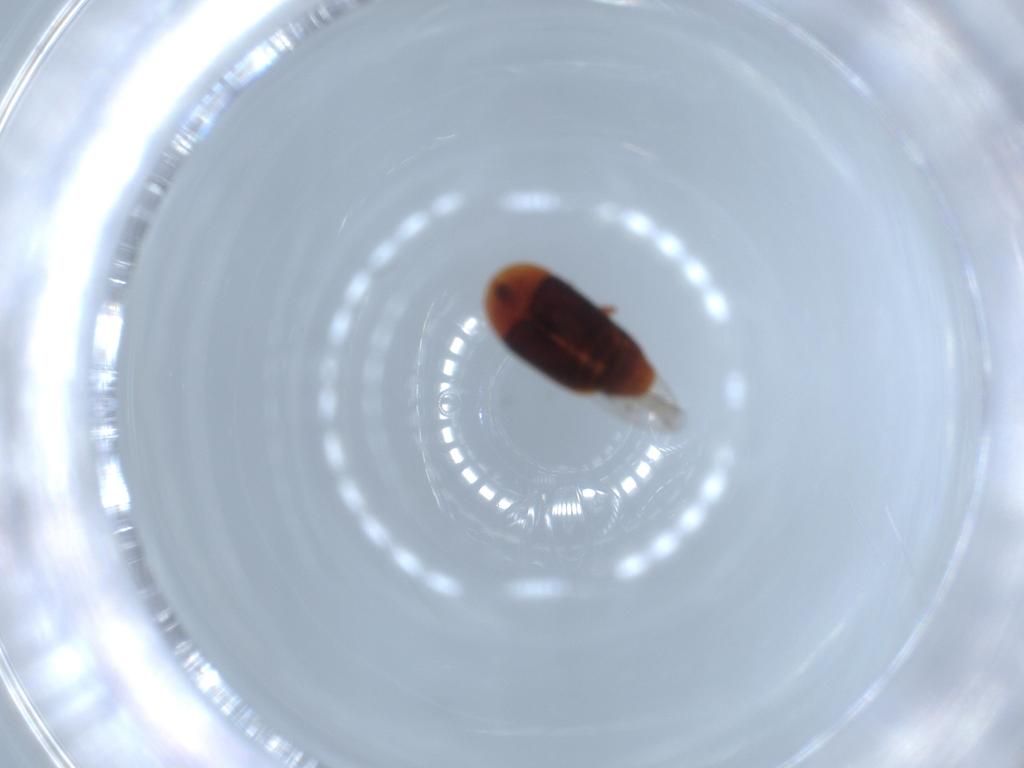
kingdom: Animalia
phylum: Arthropoda
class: Insecta
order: Coleoptera
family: Corylophidae
